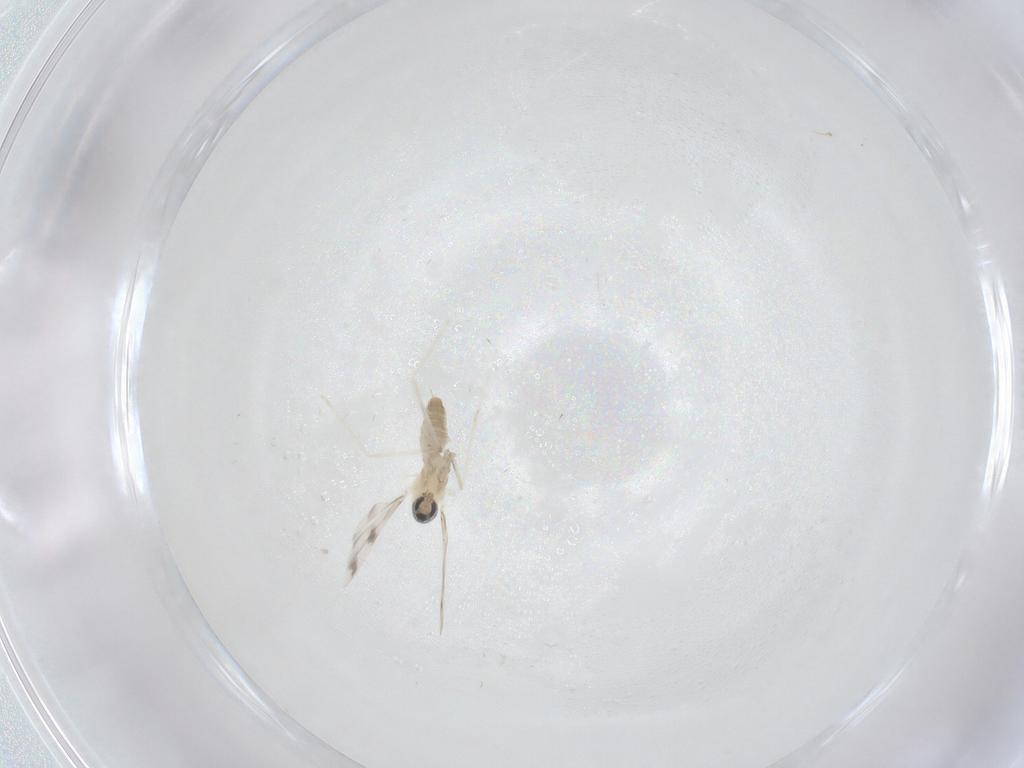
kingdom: Animalia
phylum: Arthropoda
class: Insecta
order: Diptera
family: Cecidomyiidae
